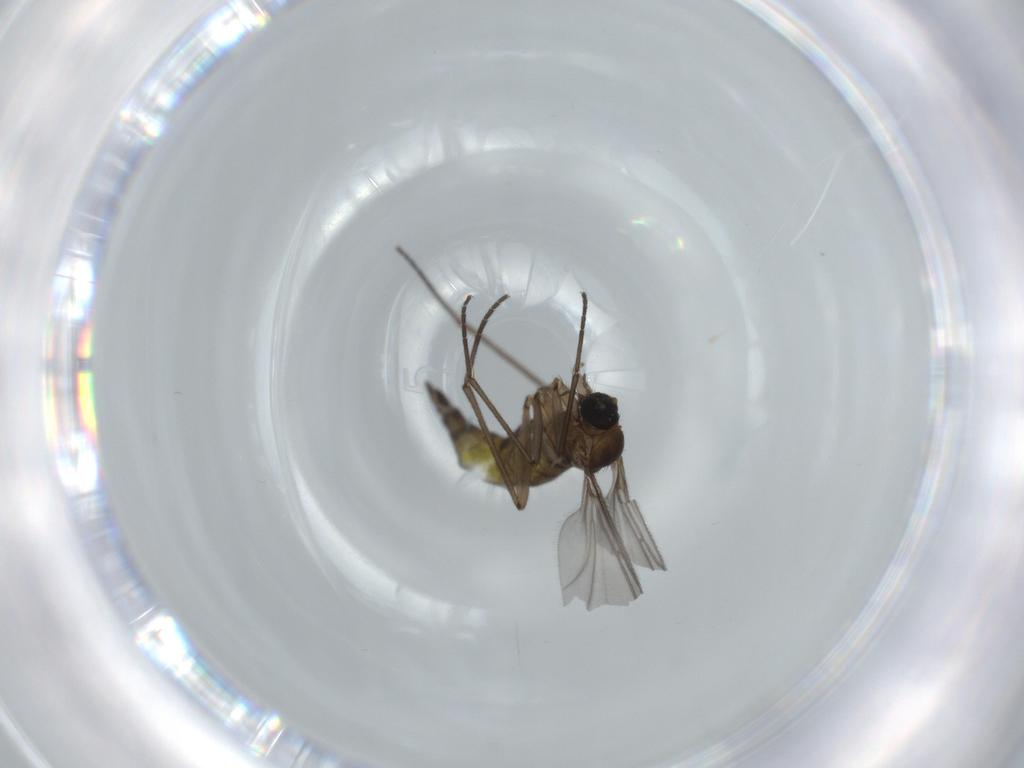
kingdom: Animalia
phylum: Arthropoda
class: Insecta
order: Diptera
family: Sciaridae
